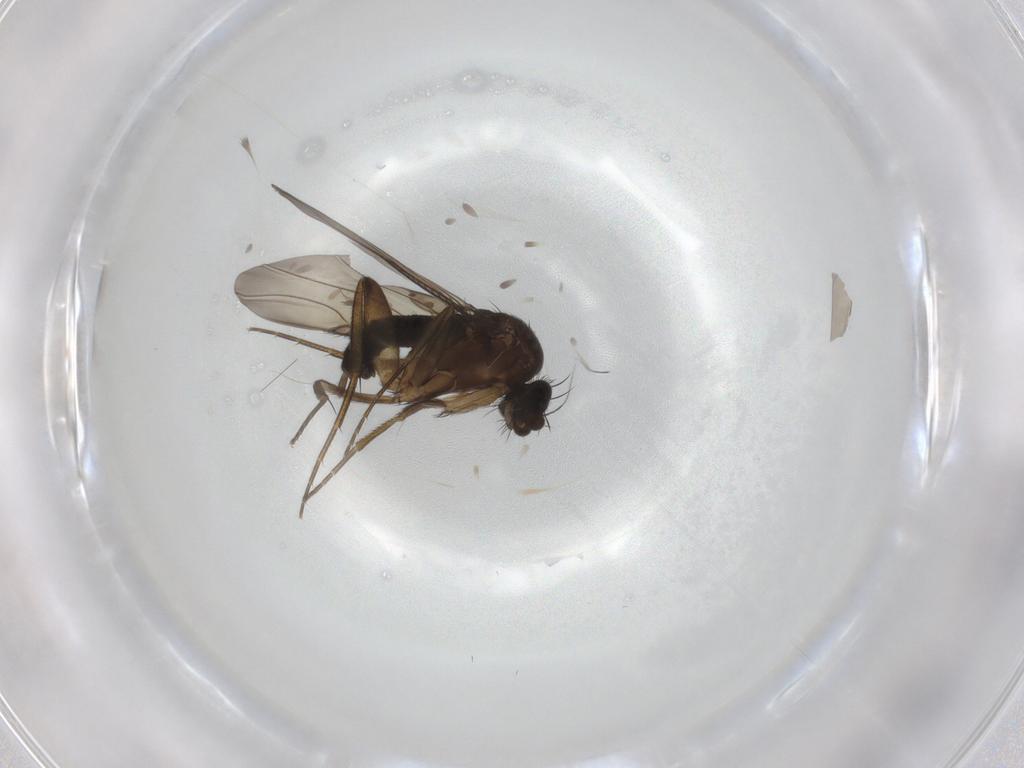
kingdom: Animalia
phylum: Arthropoda
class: Insecta
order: Diptera
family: Phoridae
